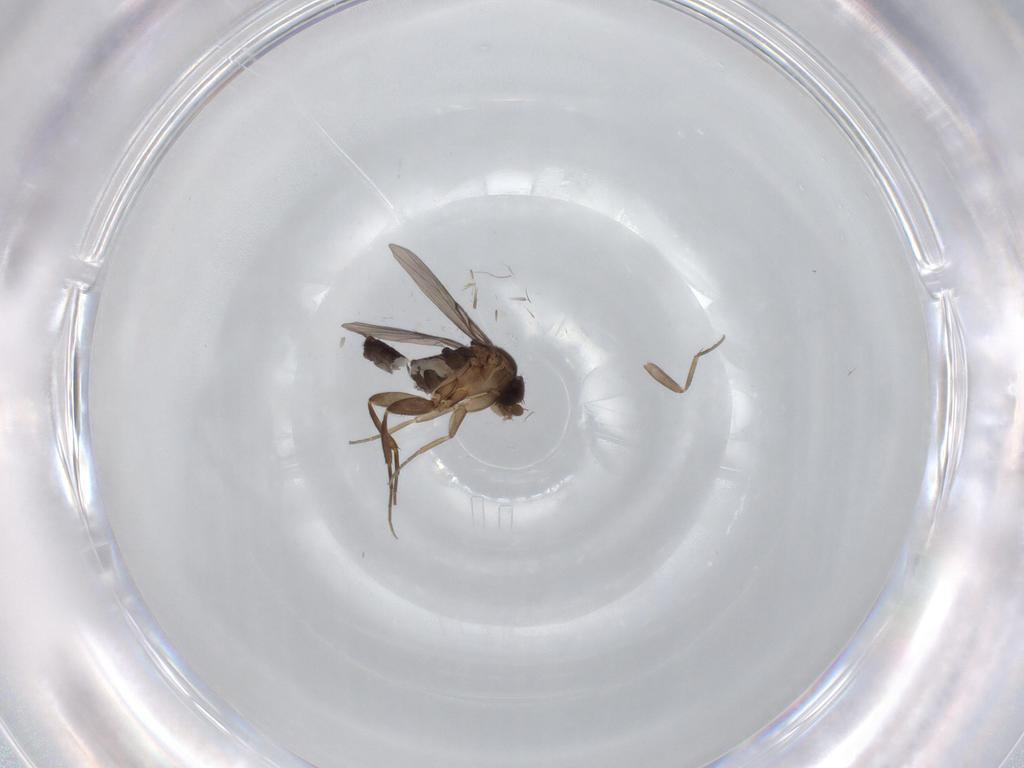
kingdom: Animalia
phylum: Arthropoda
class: Insecta
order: Diptera
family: Phoridae
